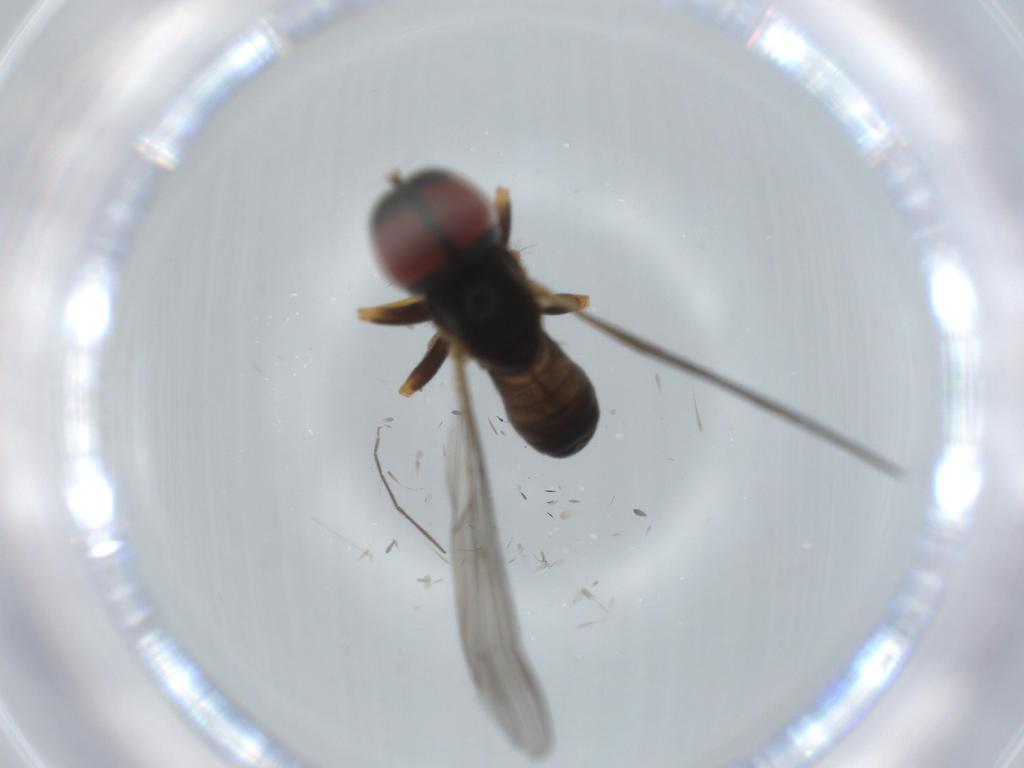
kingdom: Animalia
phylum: Arthropoda
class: Insecta
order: Diptera
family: Pipunculidae
